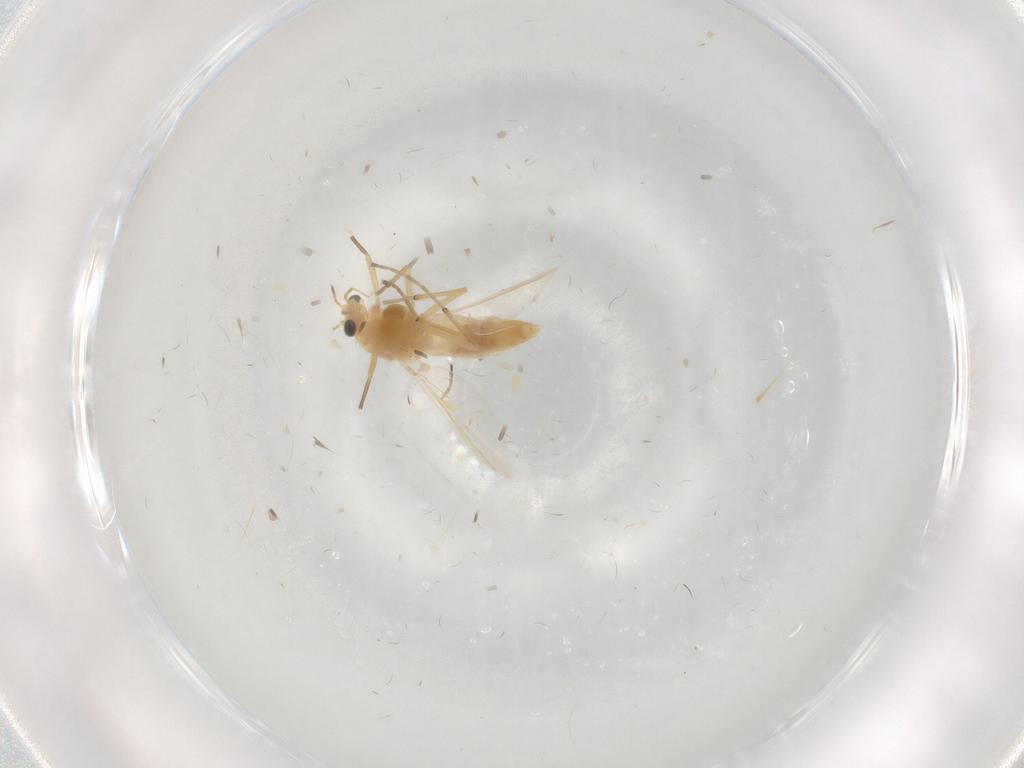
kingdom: Animalia
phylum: Arthropoda
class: Insecta
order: Diptera
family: Chironomidae
